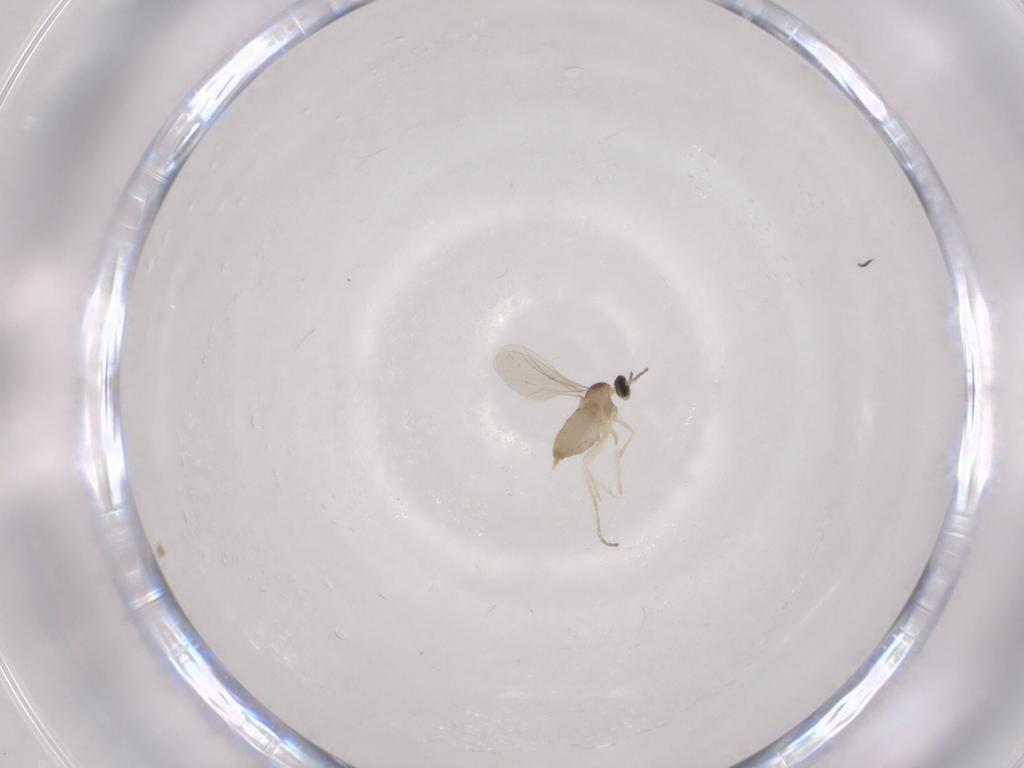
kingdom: Animalia
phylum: Arthropoda
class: Insecta
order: Diptera
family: Cecidomyiidae
